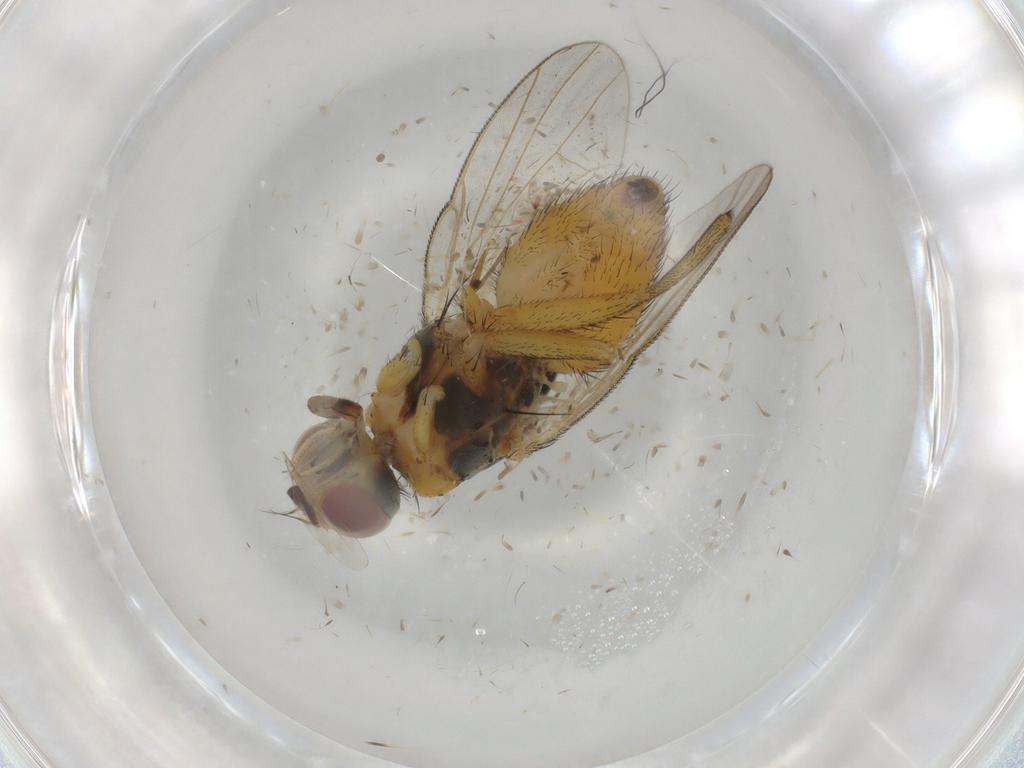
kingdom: Animalia
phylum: Arthropoda
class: Insecta
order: Diptera
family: Muscidae
